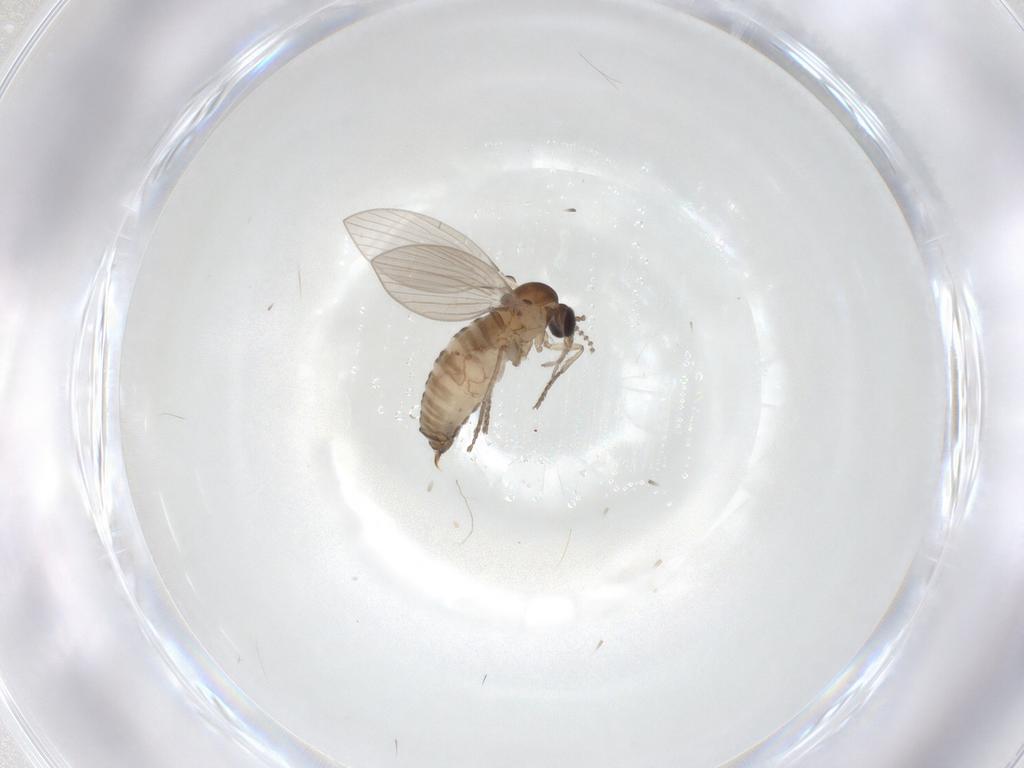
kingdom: Animalia
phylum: Arthropoda
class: Insecta
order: Diptera
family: Psychodidae
